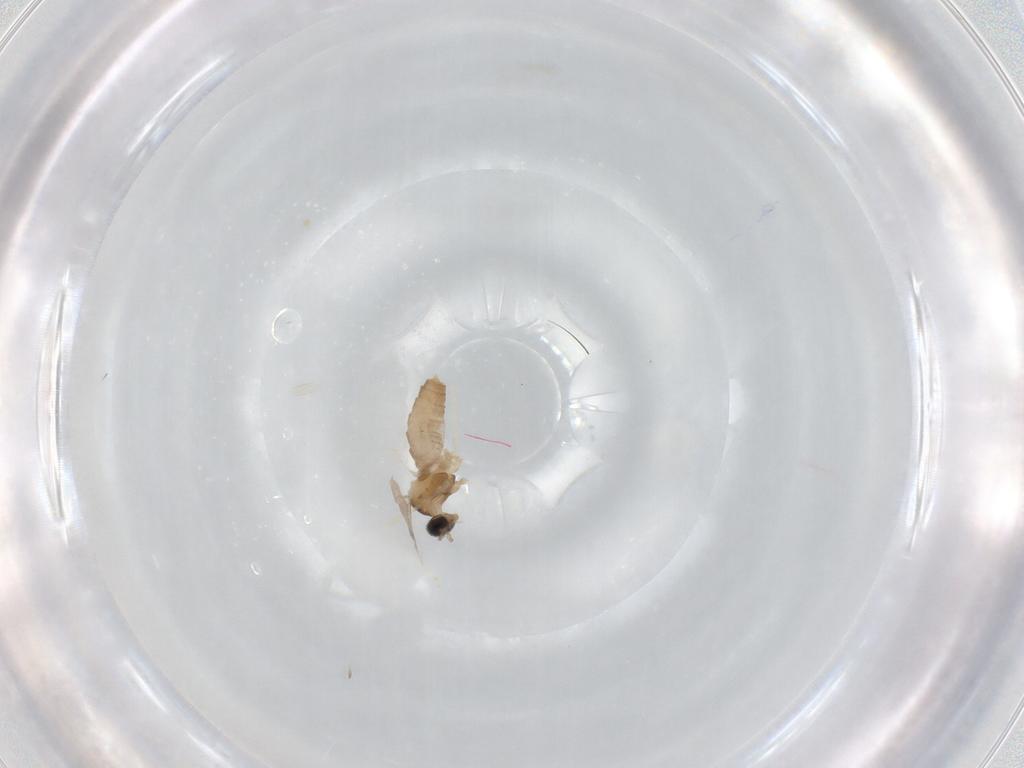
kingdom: Animalia
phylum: Arthropoda
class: Insecta
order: Diptera
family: Cecidomyiidae
